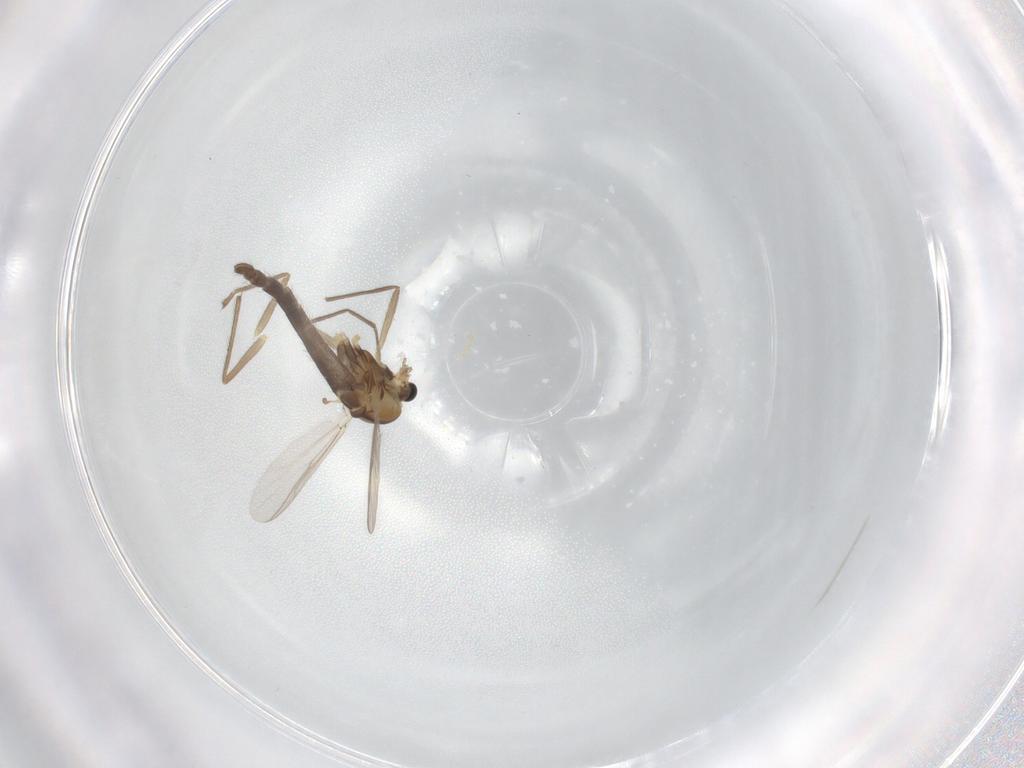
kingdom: Animalia
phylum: Arthropoda
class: Insecta
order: Diptera
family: Chironomidae
